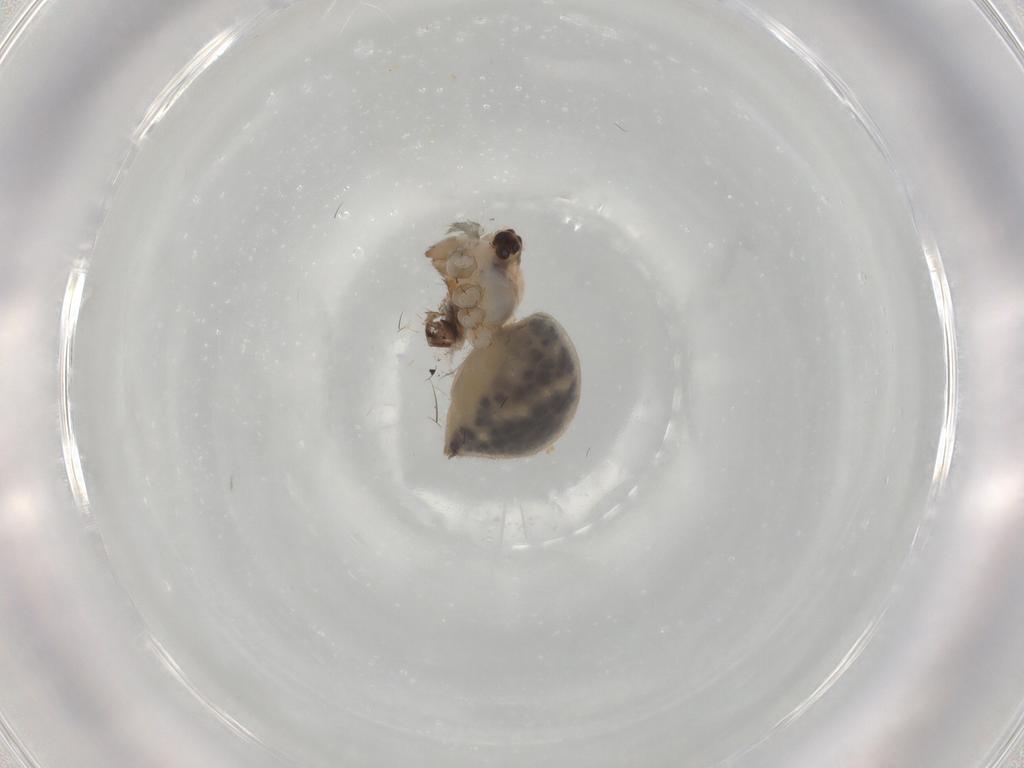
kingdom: Animalia
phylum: Arthropoda
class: Arachnida
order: Araneae
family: Pholcidae
